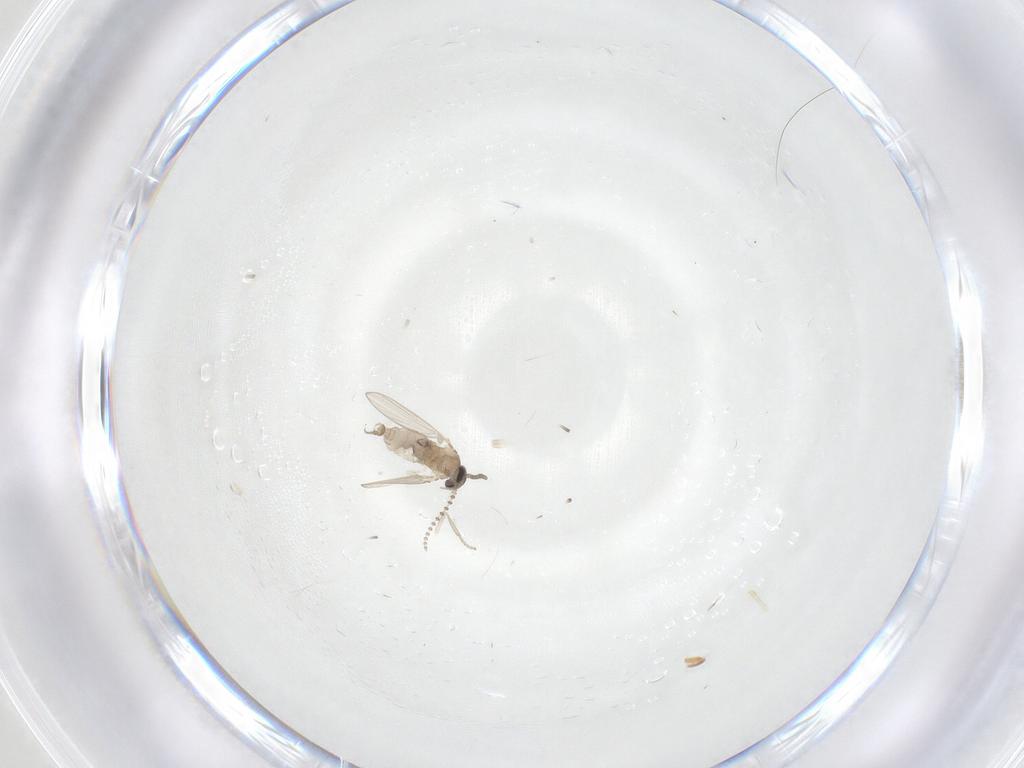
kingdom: Animalia
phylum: Arthropoda
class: Insecta
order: Diptera
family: Psychodidae
